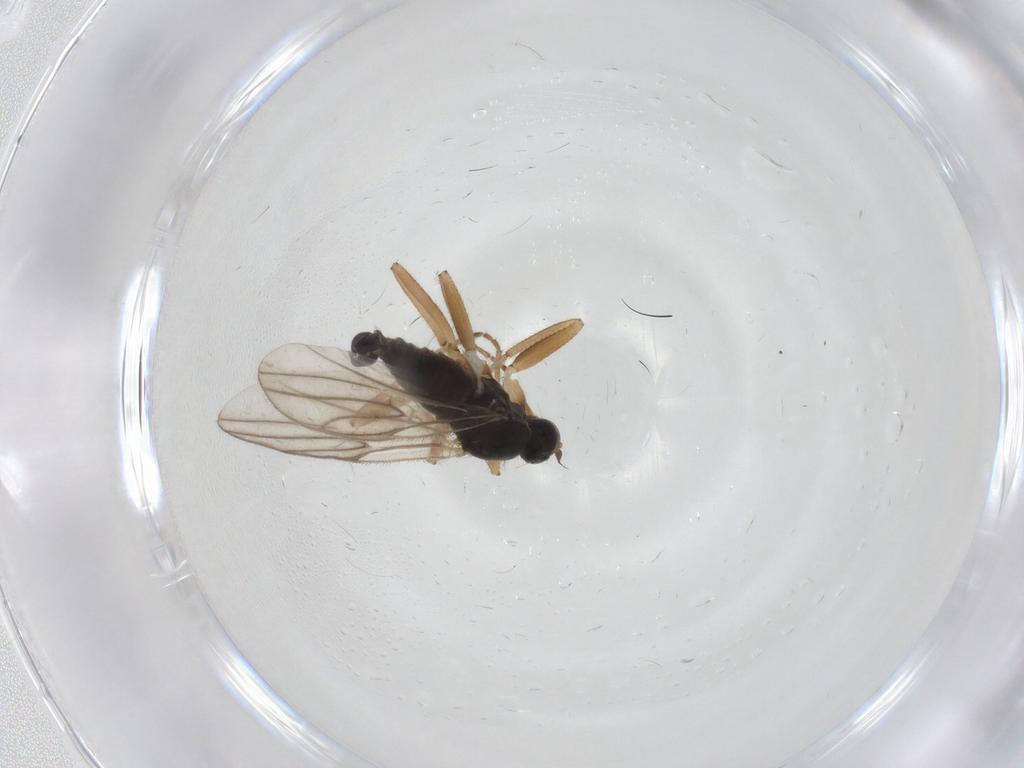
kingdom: Animalia
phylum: Arthropoda
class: Insecta
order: Diptera
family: Hybotidae
